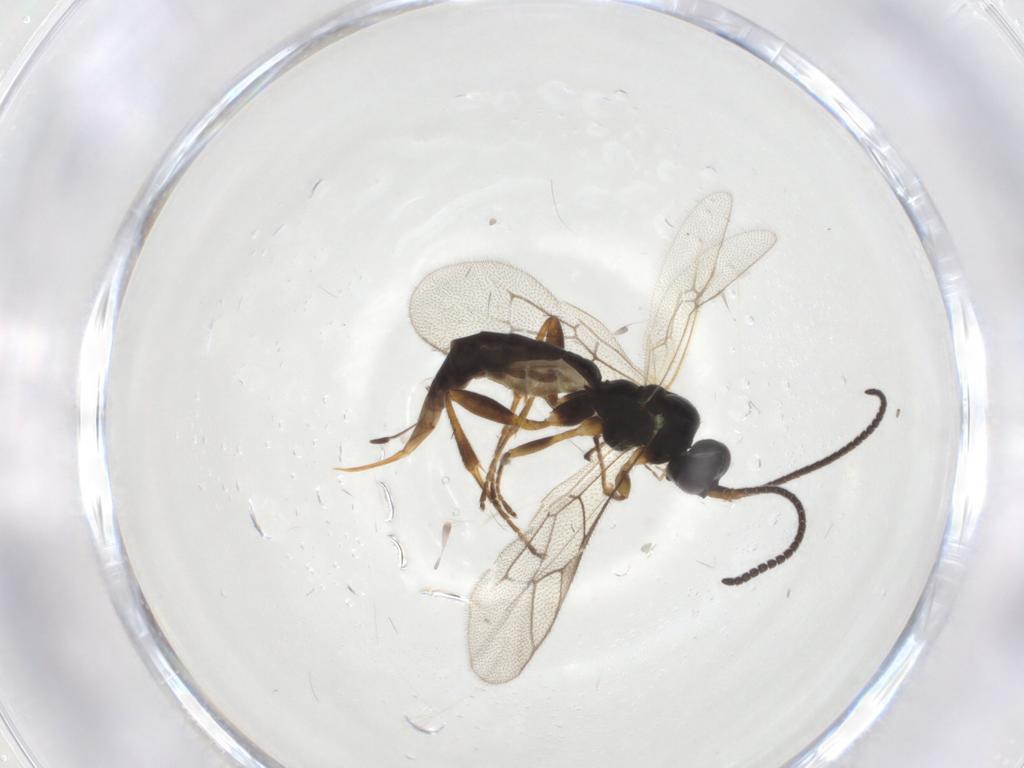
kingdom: Animalia
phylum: Arthropoda
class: Insecta
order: Hymenoptera
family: Ichneumonidae
